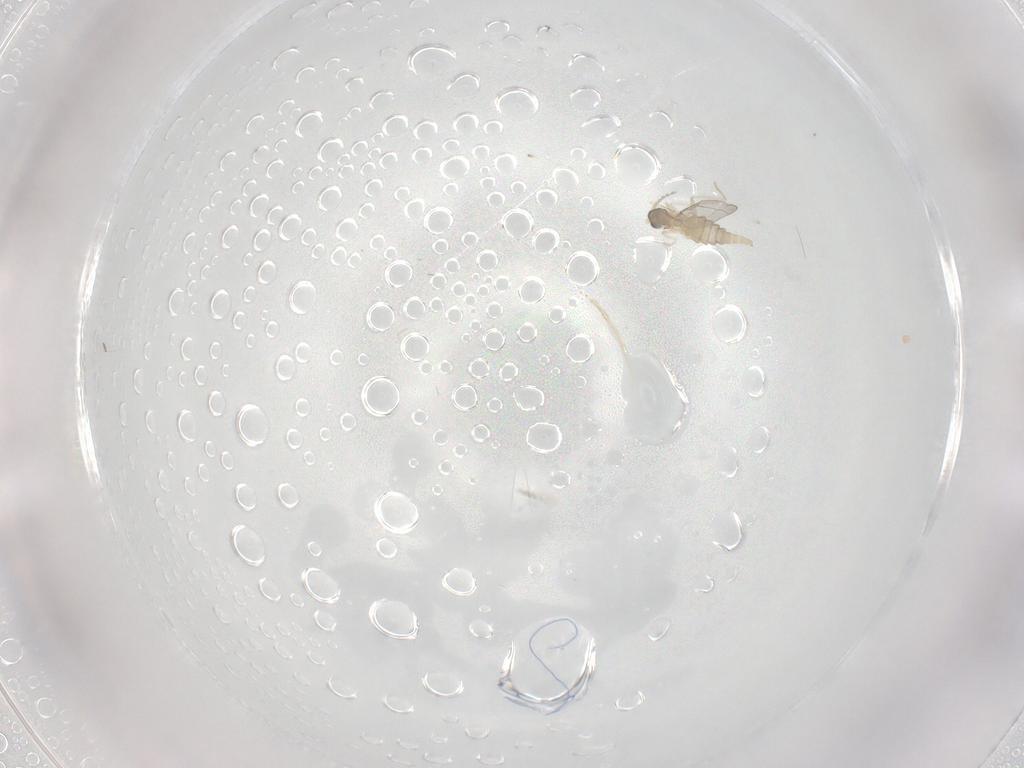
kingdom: Animalia
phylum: Arthropoda
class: Insecta
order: Diptera
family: Cecidomyiidae
